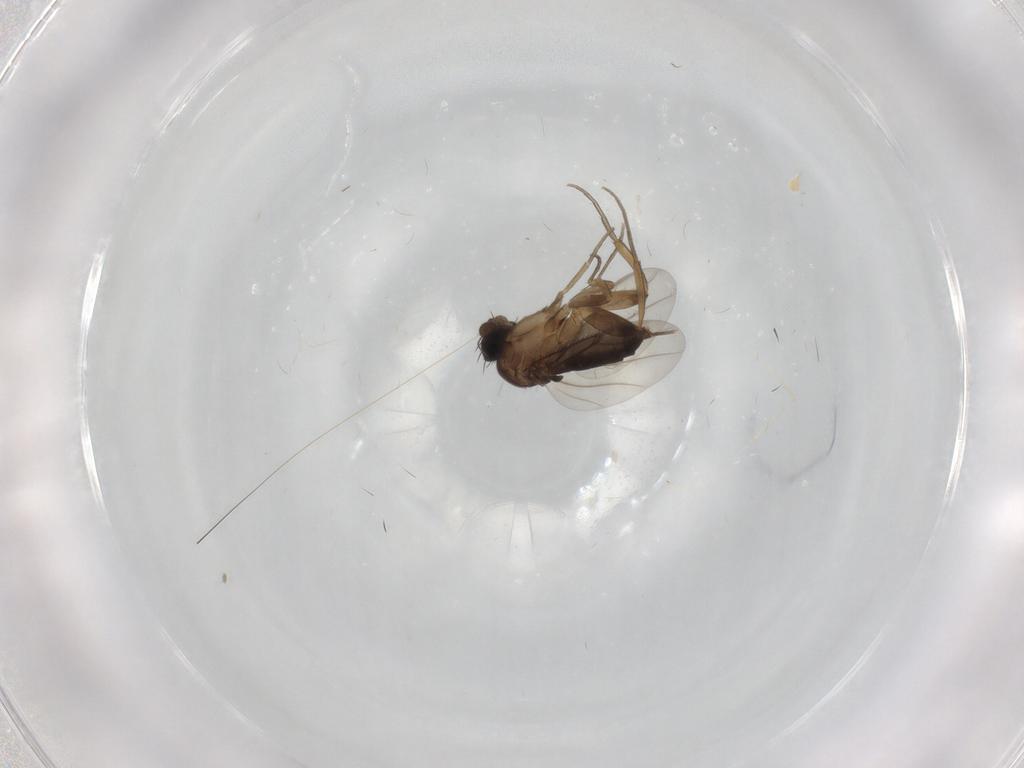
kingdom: Animalia
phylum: Arthropoda
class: Insecta
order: Diptera
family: Cecidomyiidae
